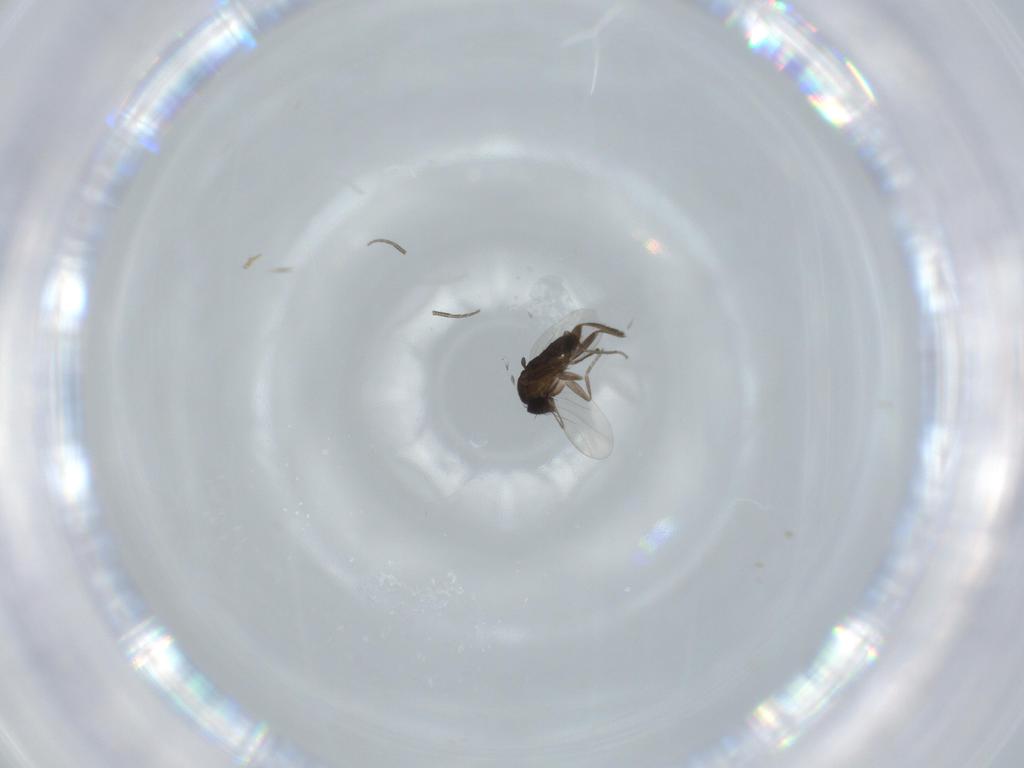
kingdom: Animalia
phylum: Arthropoda
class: Insecta
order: Diptera
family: Phoridae
